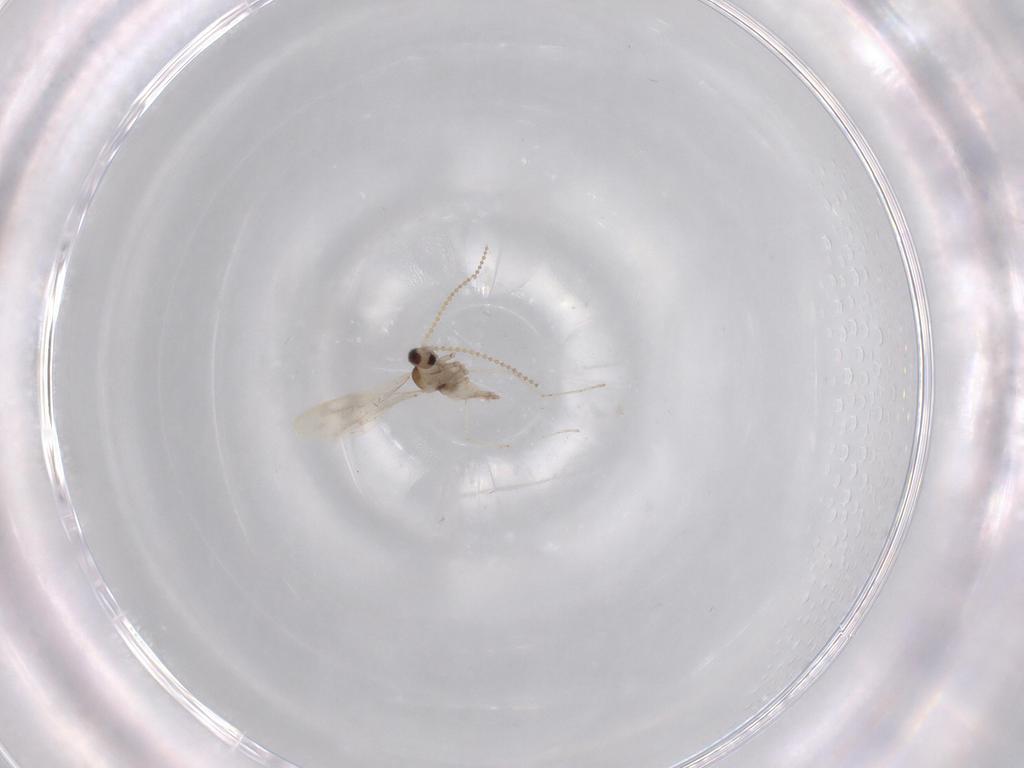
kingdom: Animalia
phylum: Arthropoda
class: Insecta
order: Diptera
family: Cecidomyiidae
